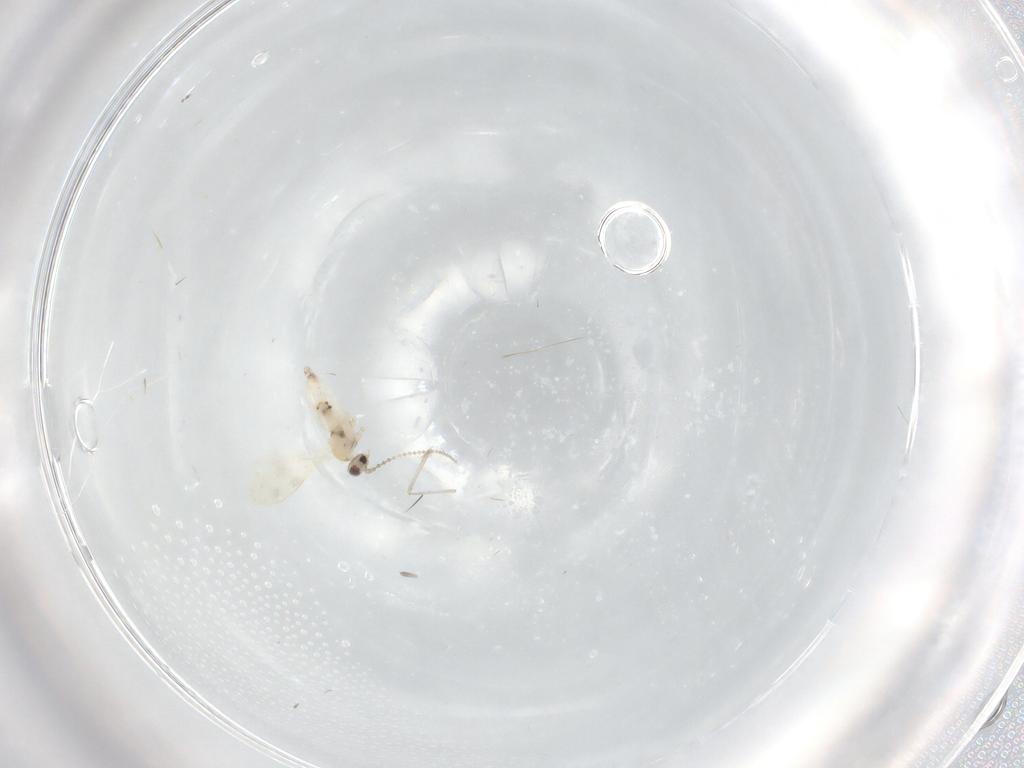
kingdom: Animalia
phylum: Arthropoda
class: Insecta
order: Diptera
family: Cecidomyiidae
